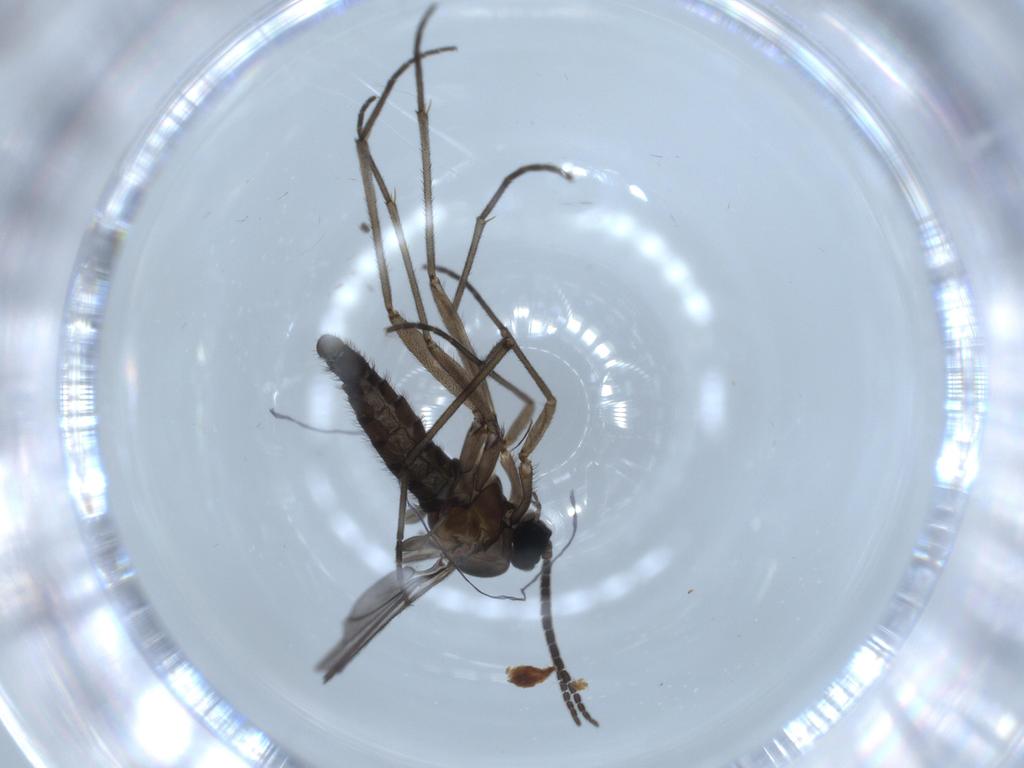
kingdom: Animalia
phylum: Arthropoda
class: Insecta
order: Diptera
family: Sciaridae
